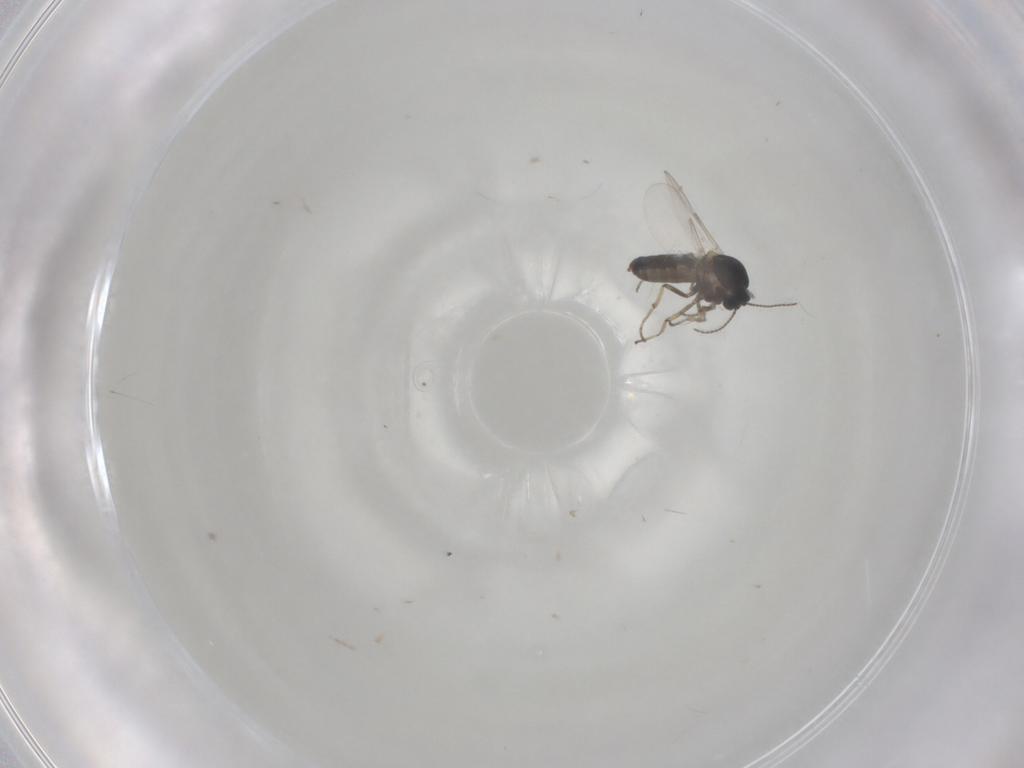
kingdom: Animalia
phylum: Arthropoda
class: Insecta
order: Diptera
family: Ceratopogonidae
